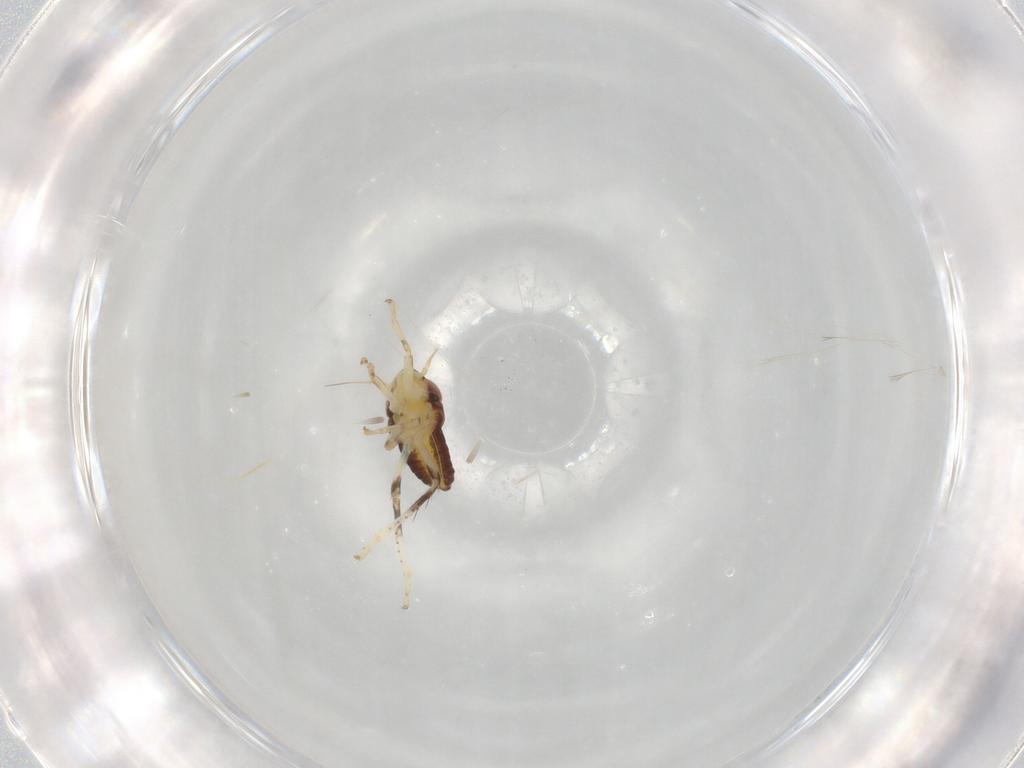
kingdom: Animalia
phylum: Arthropoda
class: Insecta
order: Hemiptera
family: Cicadellidae
